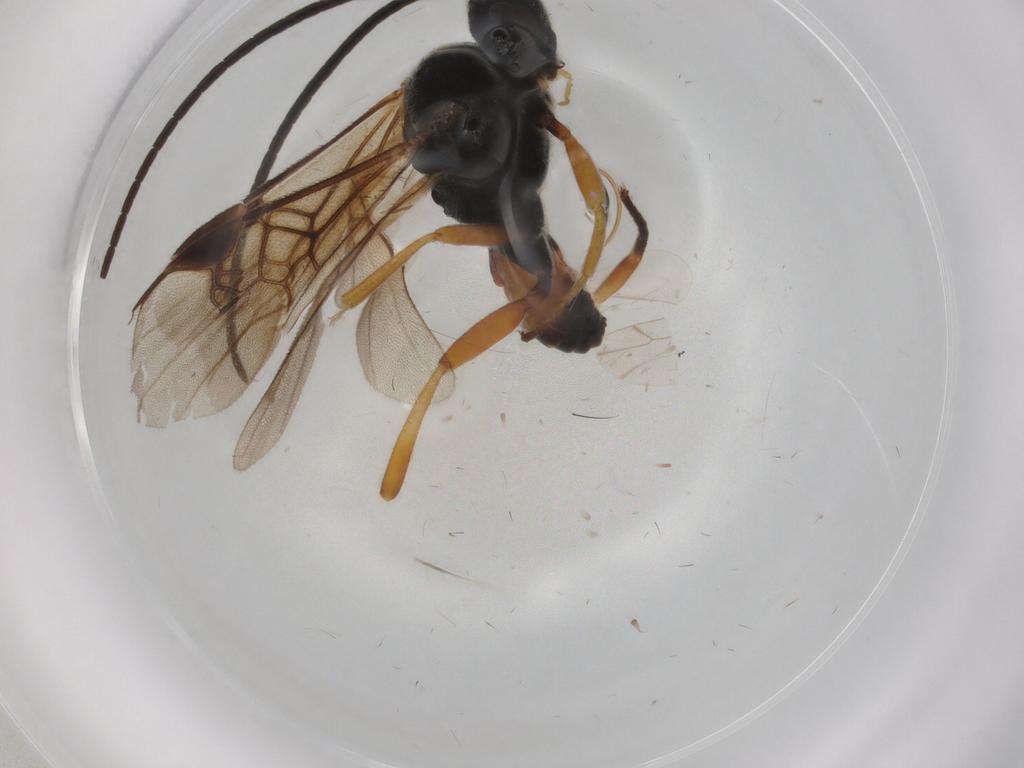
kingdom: Animalia
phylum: Arthropoda
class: Insecta
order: Hymenoptera
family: Braconidae
